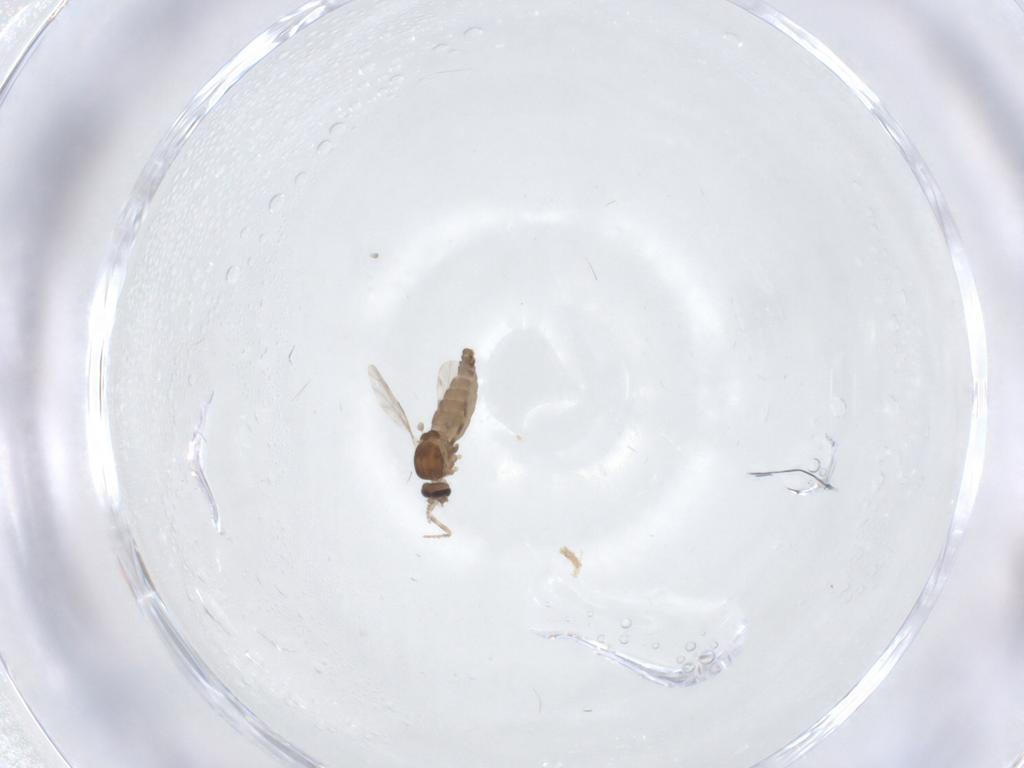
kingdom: Animalia
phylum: Arthropoda
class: Insecta
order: Diptera
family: Ceratopogonidae
